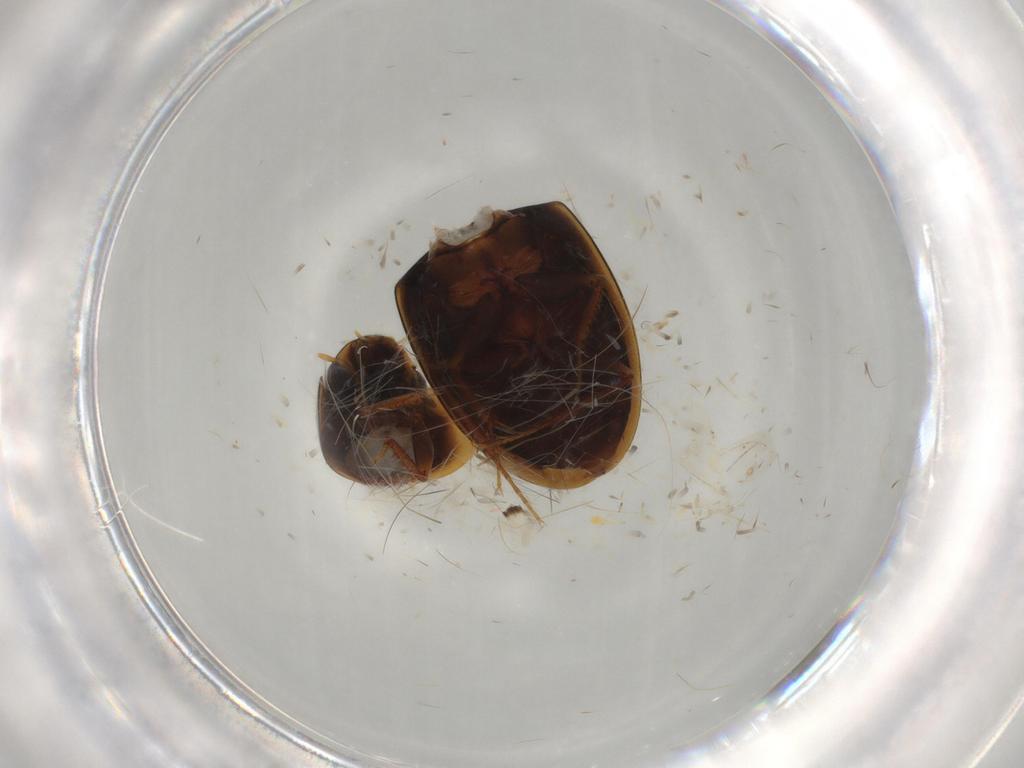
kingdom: Animalia
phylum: Arthropoda
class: Insecta
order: Coleoptera
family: Hydrophilidae
